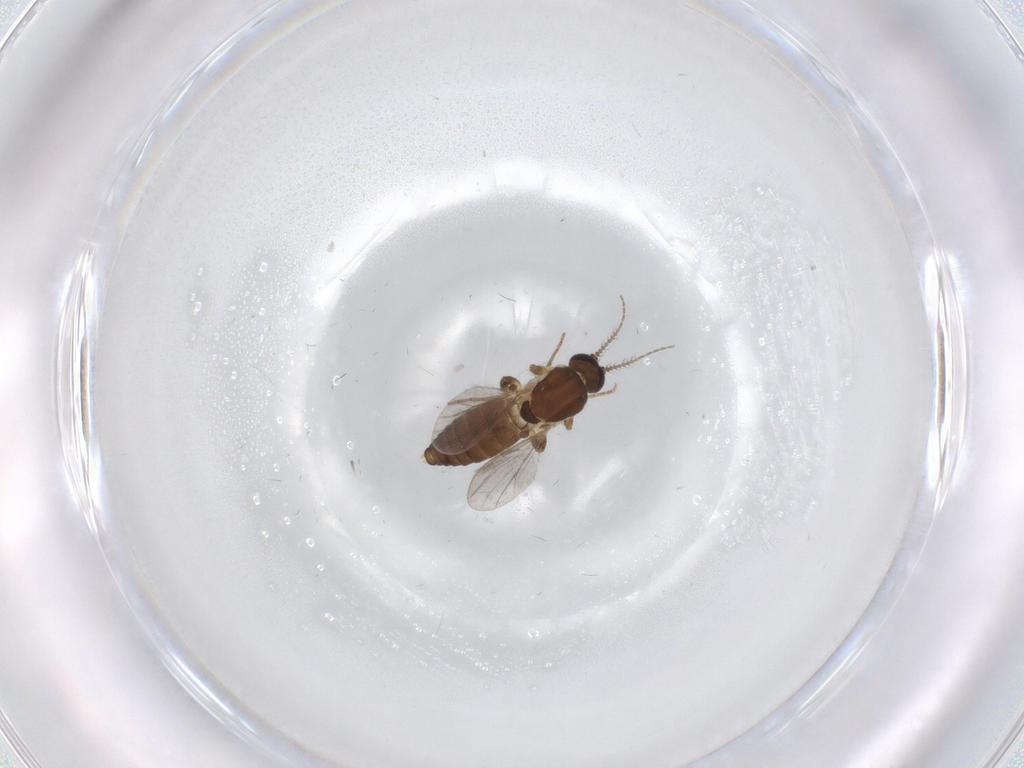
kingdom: Animalia
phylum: Arthropoda
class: Insecta
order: Diptera
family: Ceratopogonidae
